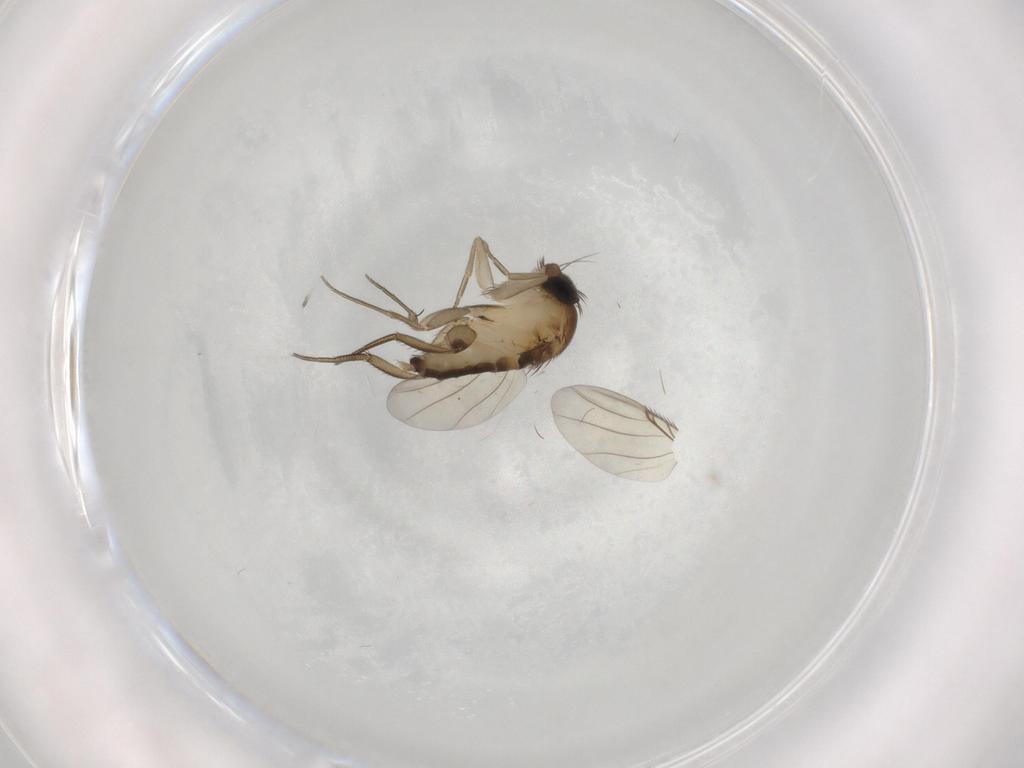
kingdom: Animalia
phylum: Arthropoda
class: Insecta
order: Diptera
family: Phoridae
